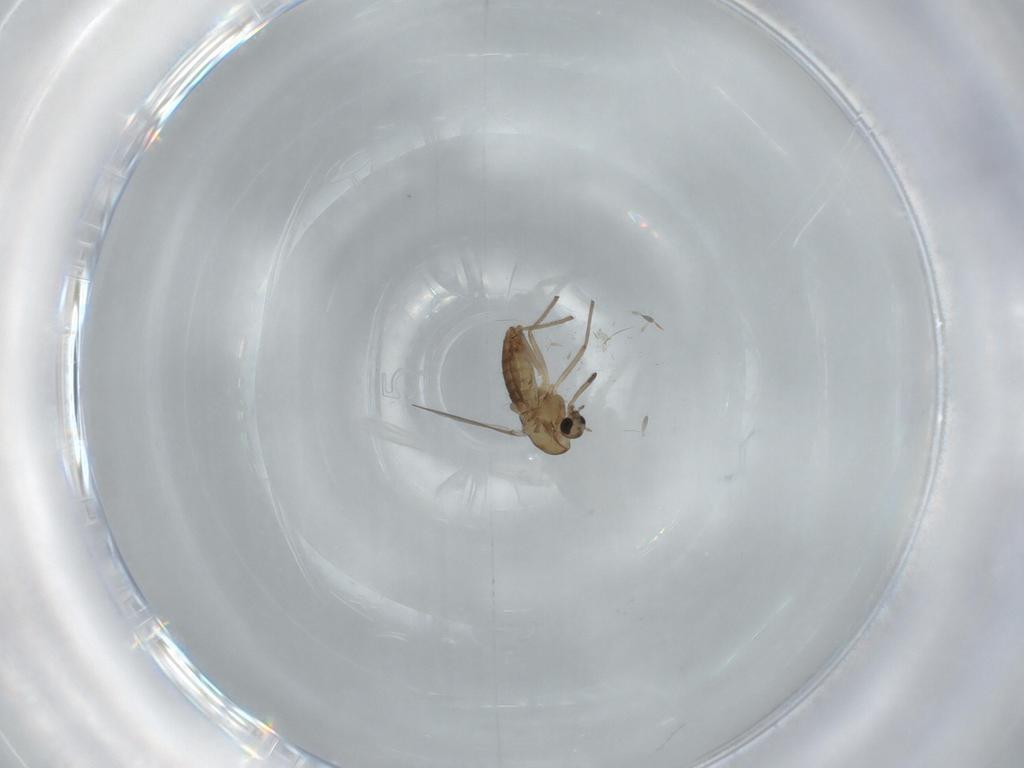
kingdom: Animalia
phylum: Arthropoda
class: Insecta
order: Diptera
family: Chironomidae
